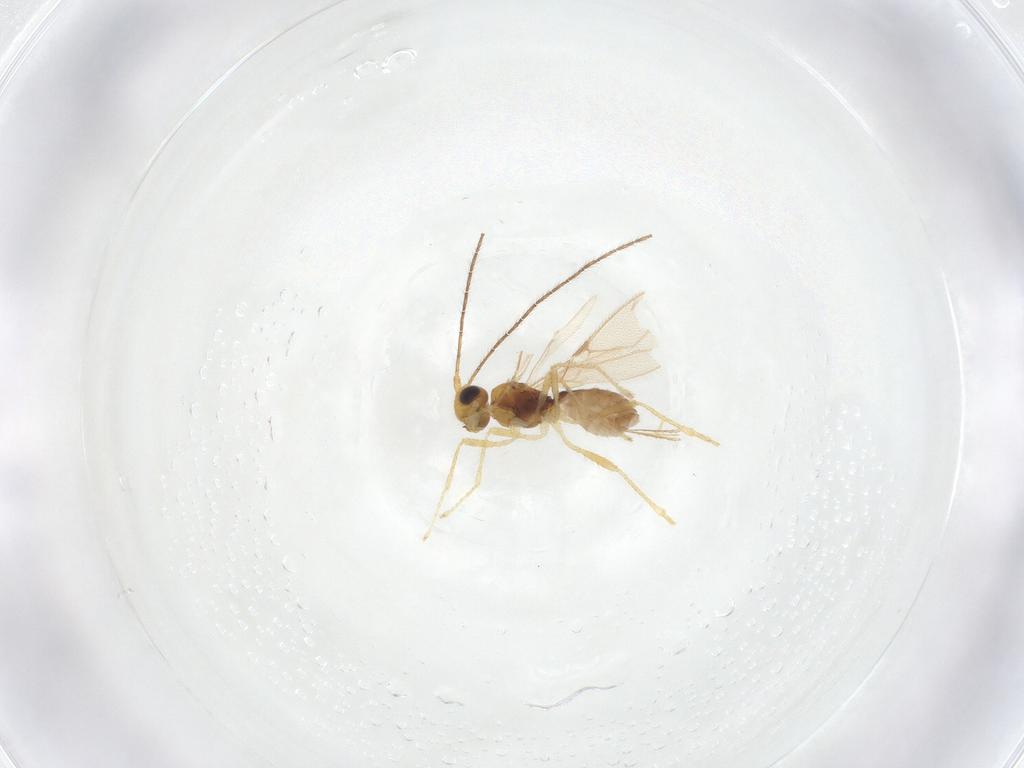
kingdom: Animalia
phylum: Arthropoda
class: Insecta
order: Hymenoptera
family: Braconidae
